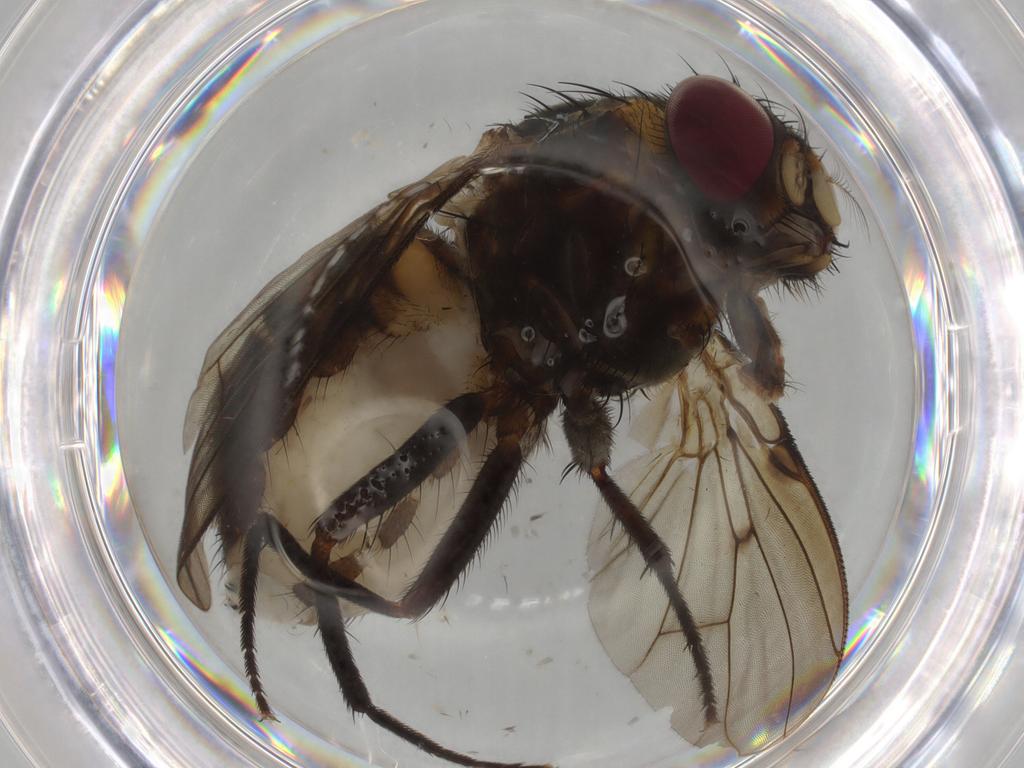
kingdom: Animalia
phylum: Arthropoda
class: Insecta
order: Diptera
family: Muscidae
